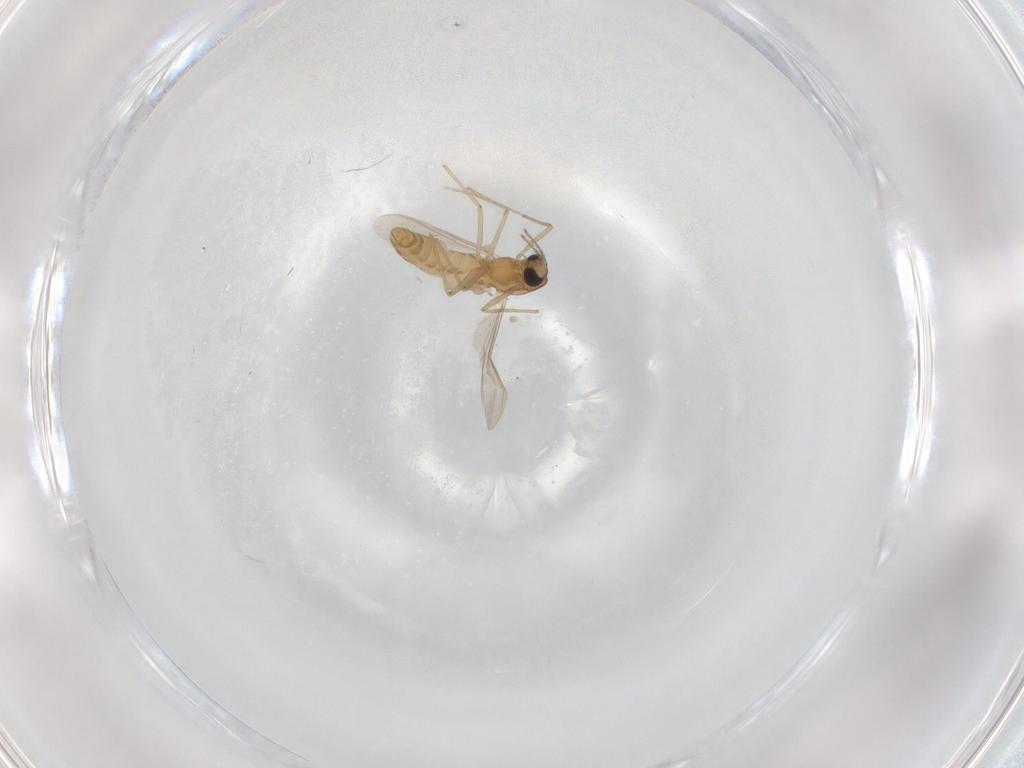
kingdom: Animalia
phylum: Arthropoda
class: Insecta
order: Diptera
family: Chironomidae
